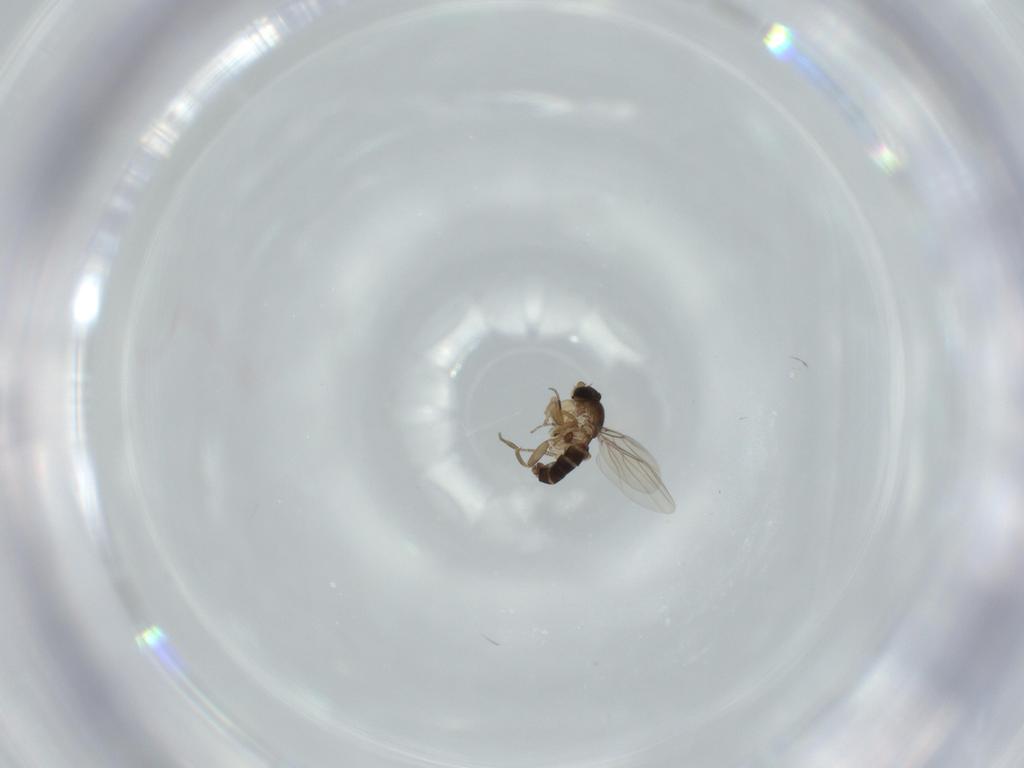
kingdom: Animalia
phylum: Arthropoda
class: Insecta
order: Diptera
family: Phoridae
